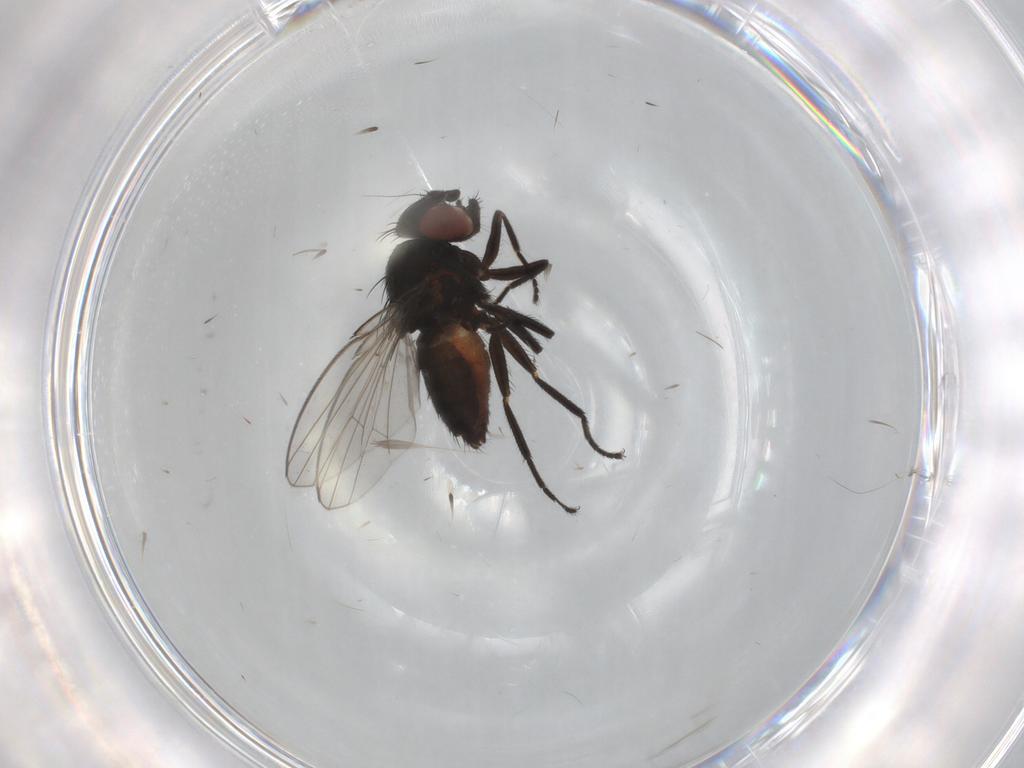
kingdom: Animalia
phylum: Arthropoda
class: Insecta
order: Diptera
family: Milichiidae
